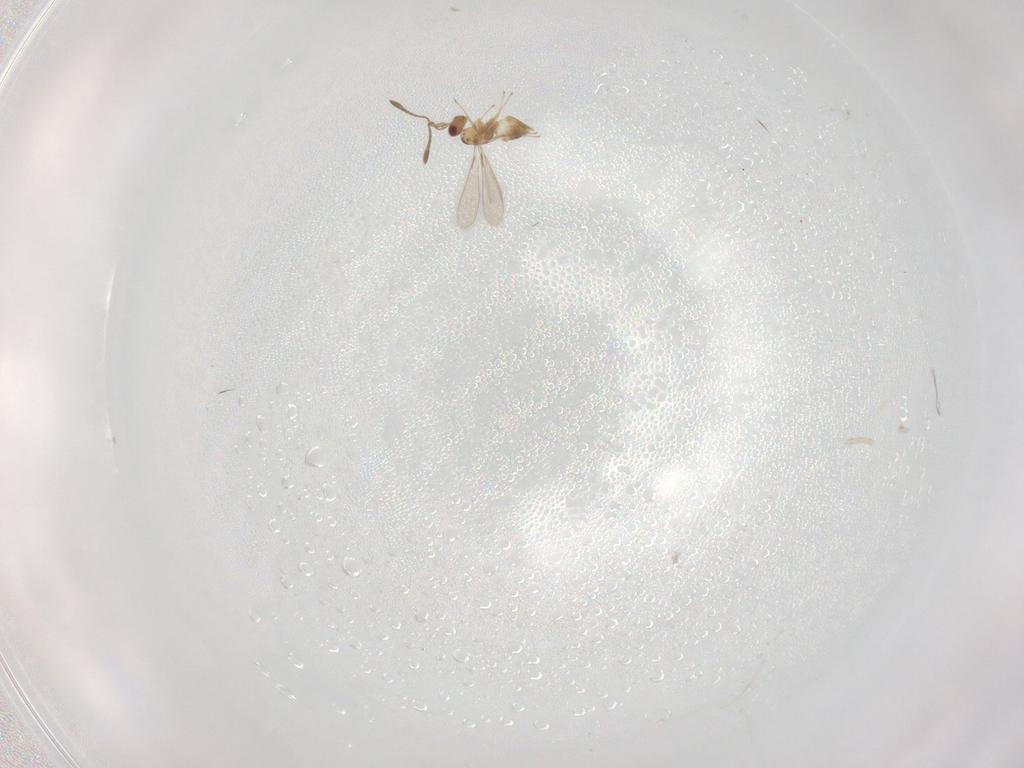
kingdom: Animalia
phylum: Arthropoda
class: Insecta
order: Hymenoptera
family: Mymaridae
